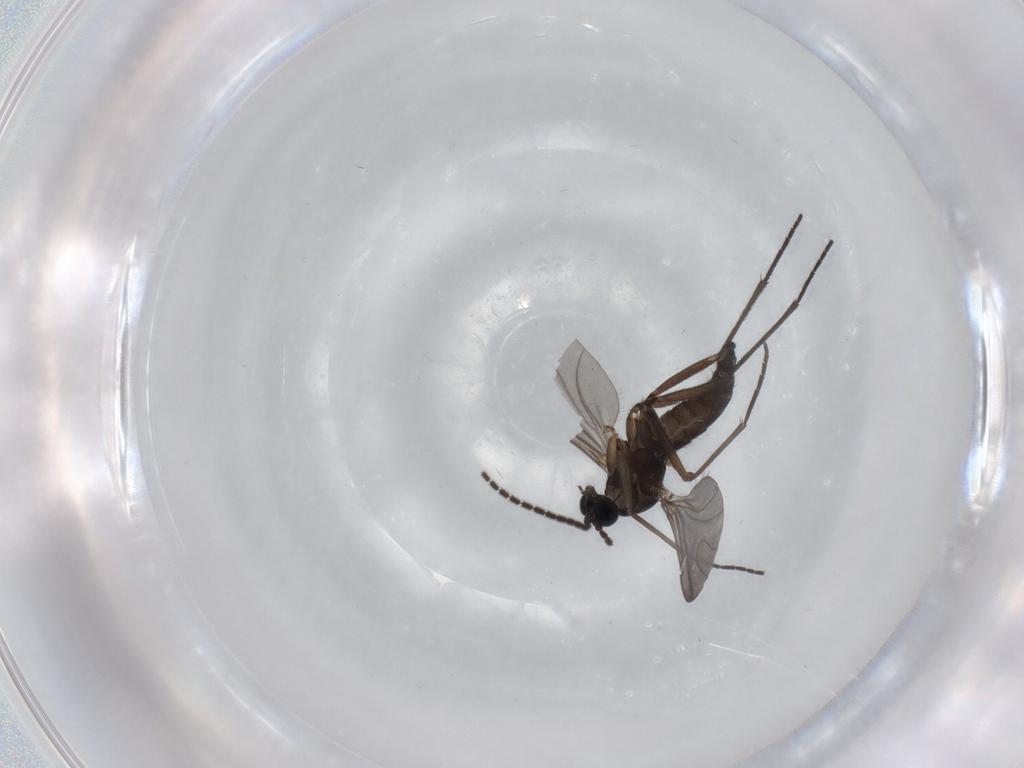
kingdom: Animalia
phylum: Arthropoda
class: Insecta
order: Diptera
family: Sciaridae
